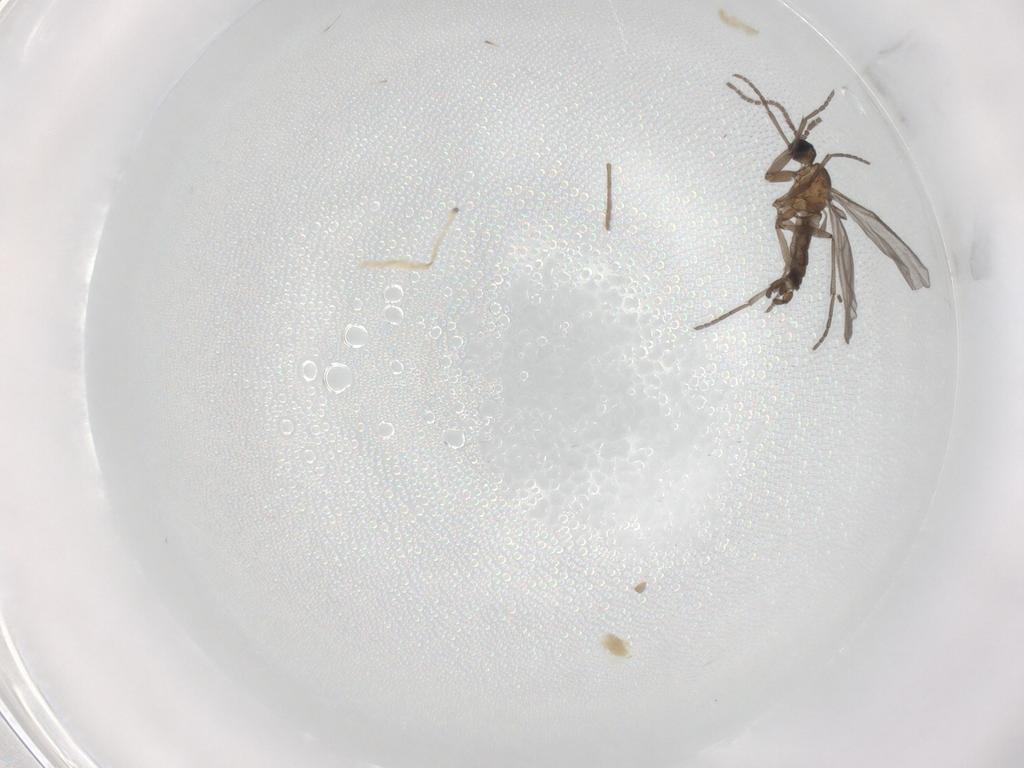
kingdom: Animalia
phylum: Arthropoda
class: Insecta
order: Diptera
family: Sciaridae
